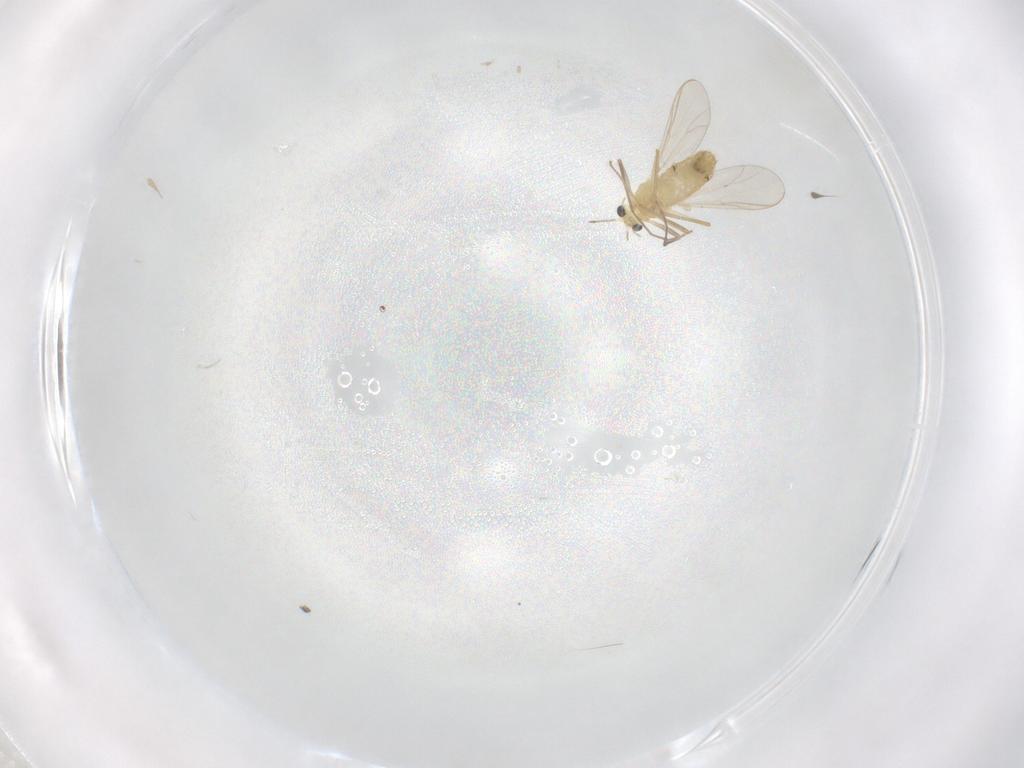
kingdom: Animalia
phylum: Arthropoda
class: Insecta
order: Diptera
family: Chironomidae
